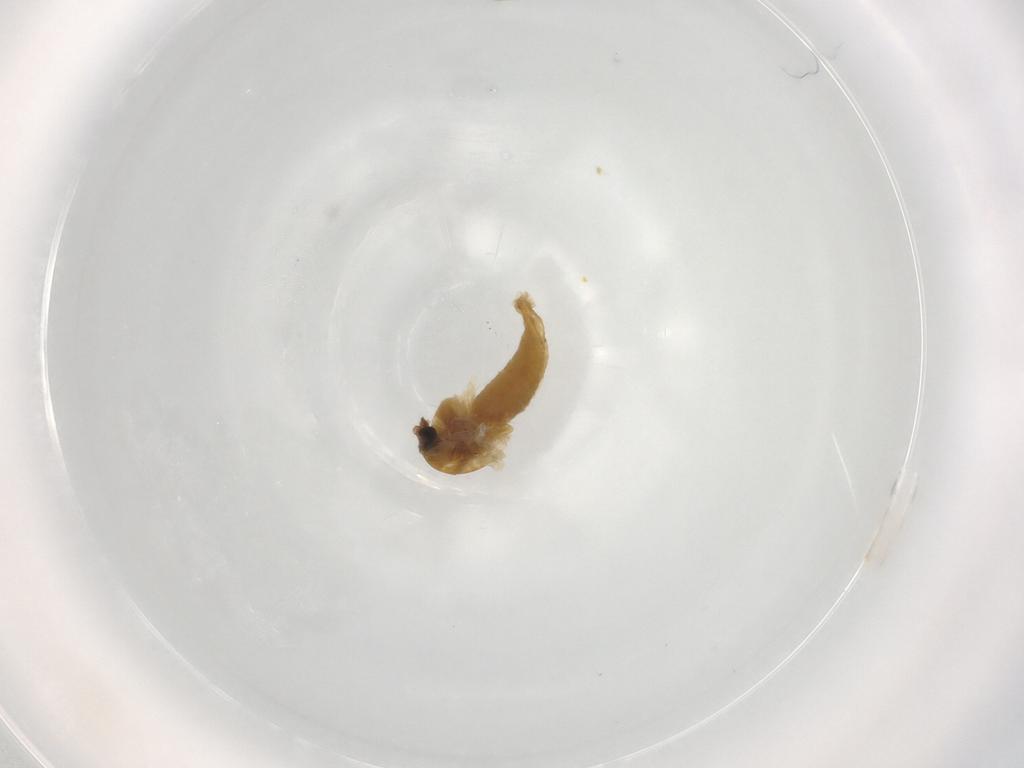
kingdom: Animalia
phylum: Arthropoda
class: Insecta
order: Diptera
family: Chironomidae
